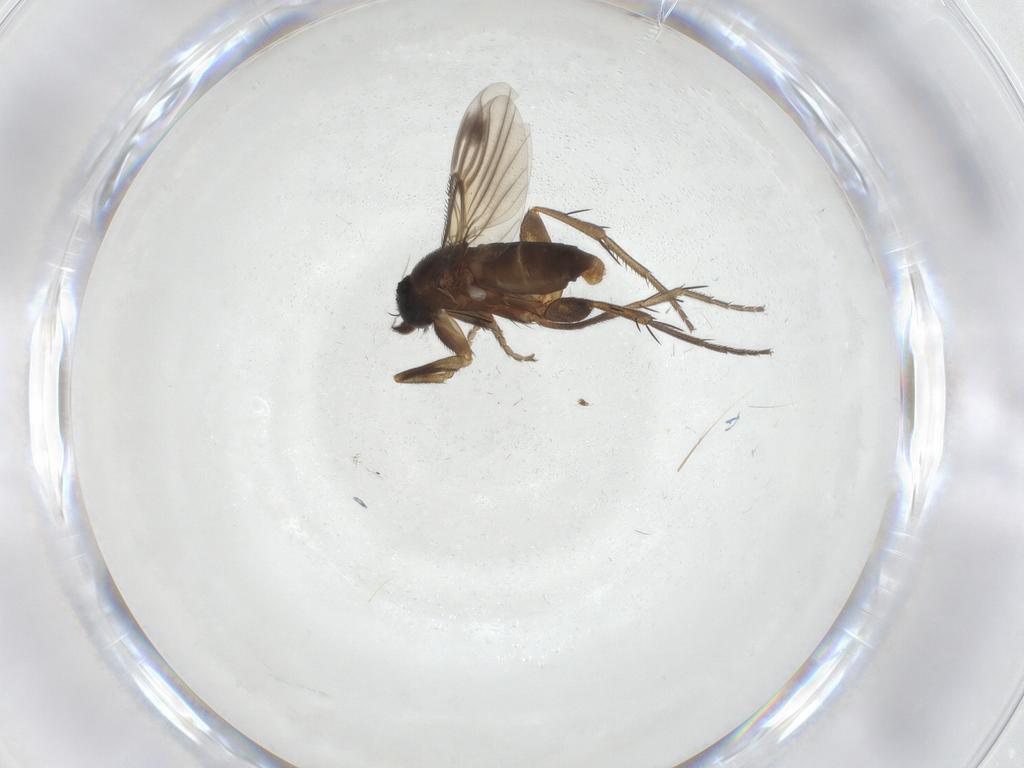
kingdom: Animalia
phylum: Arthropoda
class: Insecta
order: Diptera
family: Phoridae
